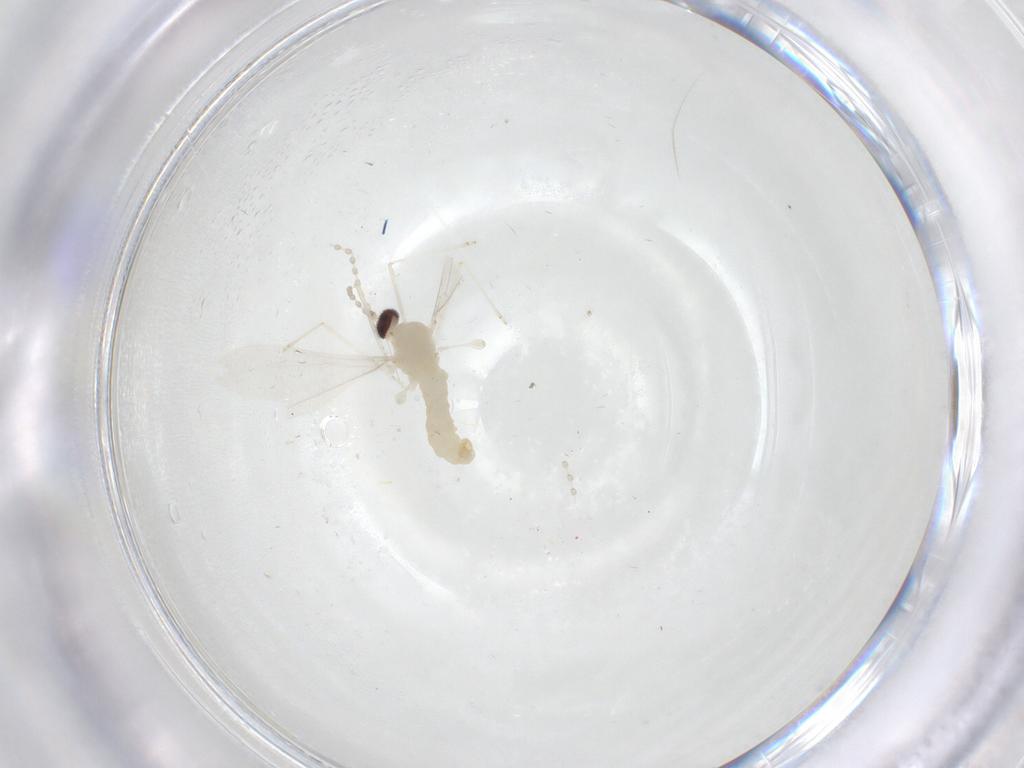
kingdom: Animalia
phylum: Arthropoda
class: Insecta
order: Diptera
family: Cecidomyiidae
